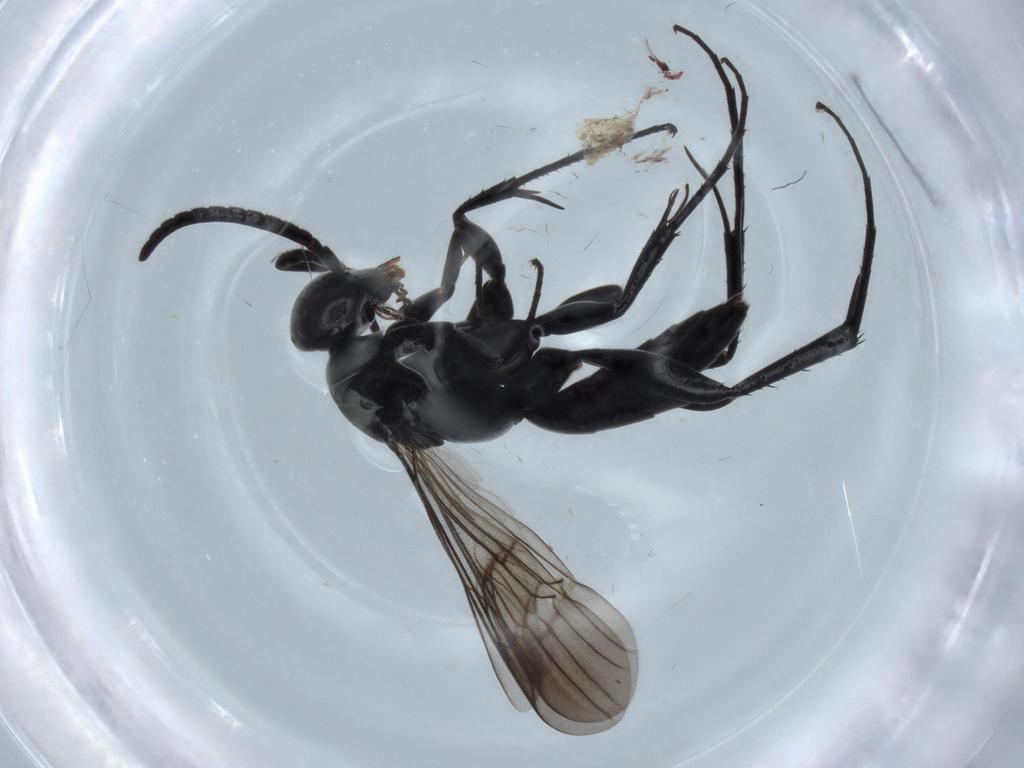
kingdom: Animalia
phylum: Arthropoda
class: Insecta
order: Hymenoptera
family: Pompilidae
